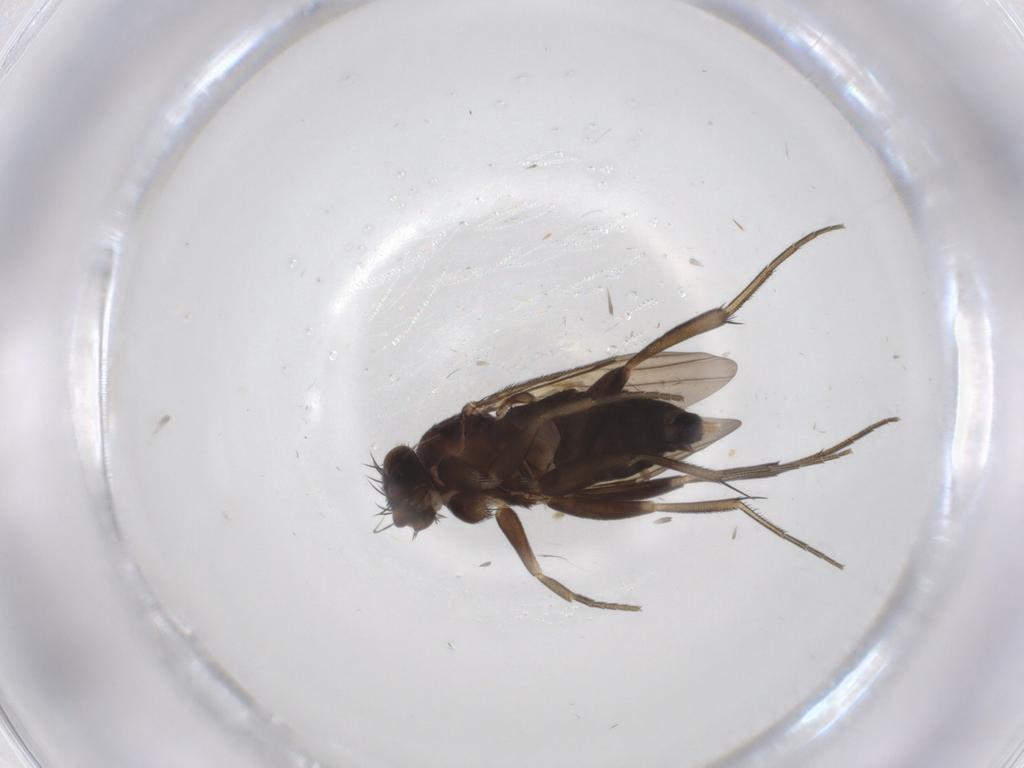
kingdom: Animalia
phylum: Arthropoda
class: Insecta
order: Diptera
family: Phoridae
